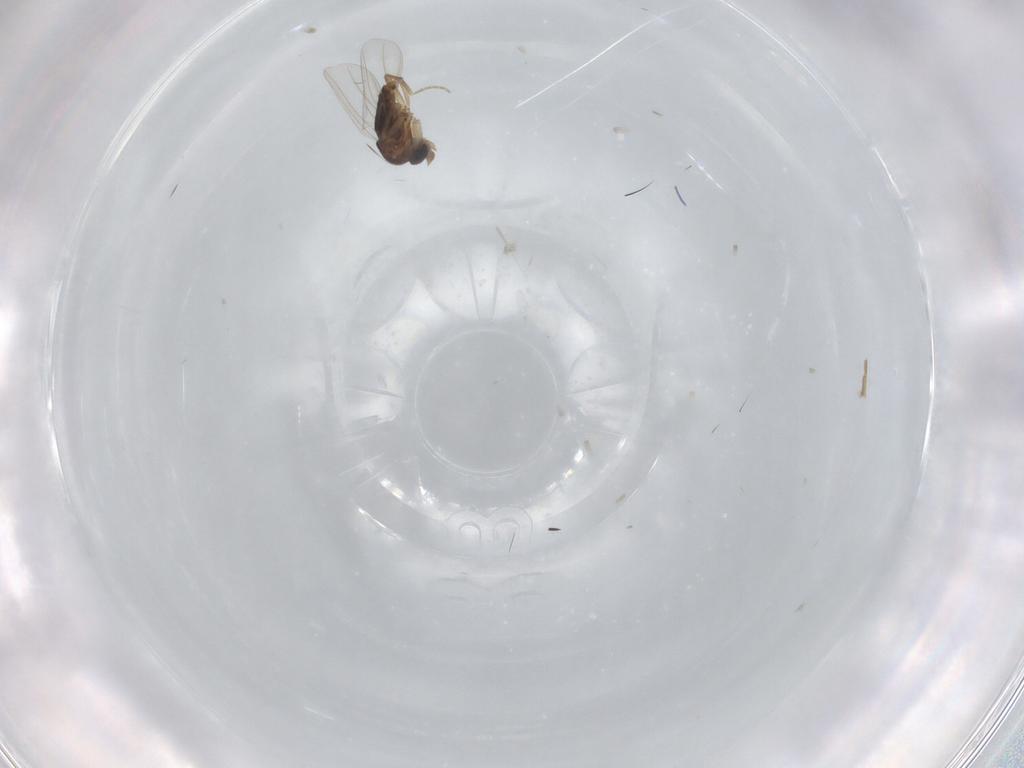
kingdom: Animalia
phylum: Arthropoda
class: Insecta
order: Diptera
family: Phoridae
